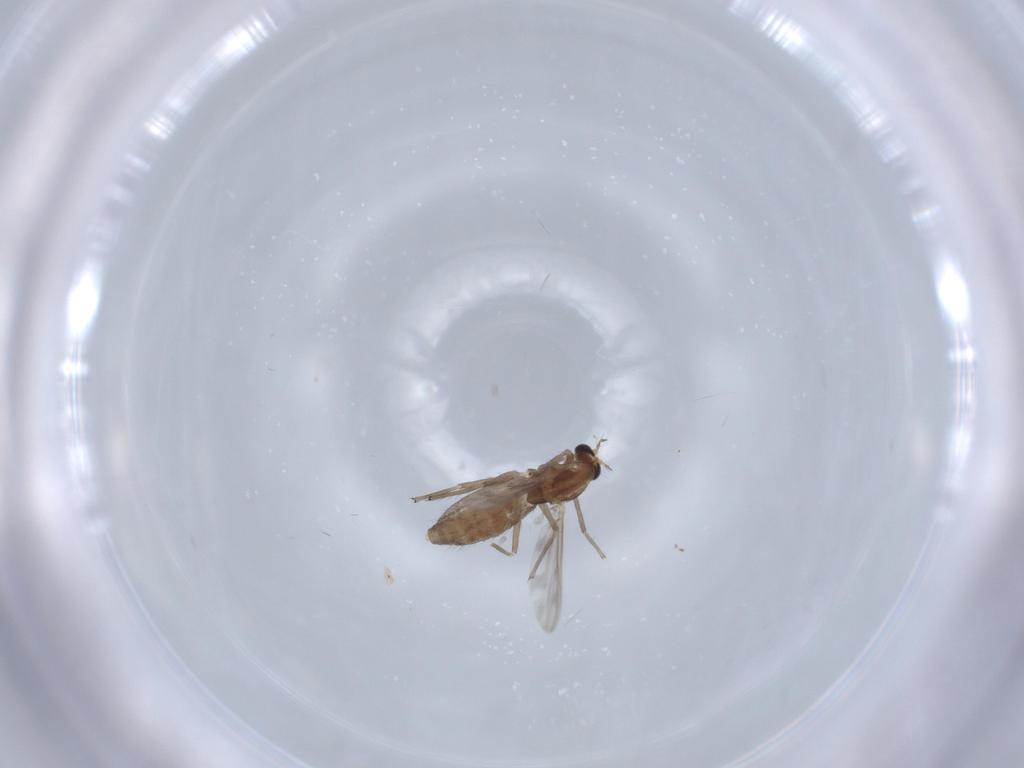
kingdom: Animalia
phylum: Arthropoda
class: Insecta
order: Diptera
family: Chironomidae
